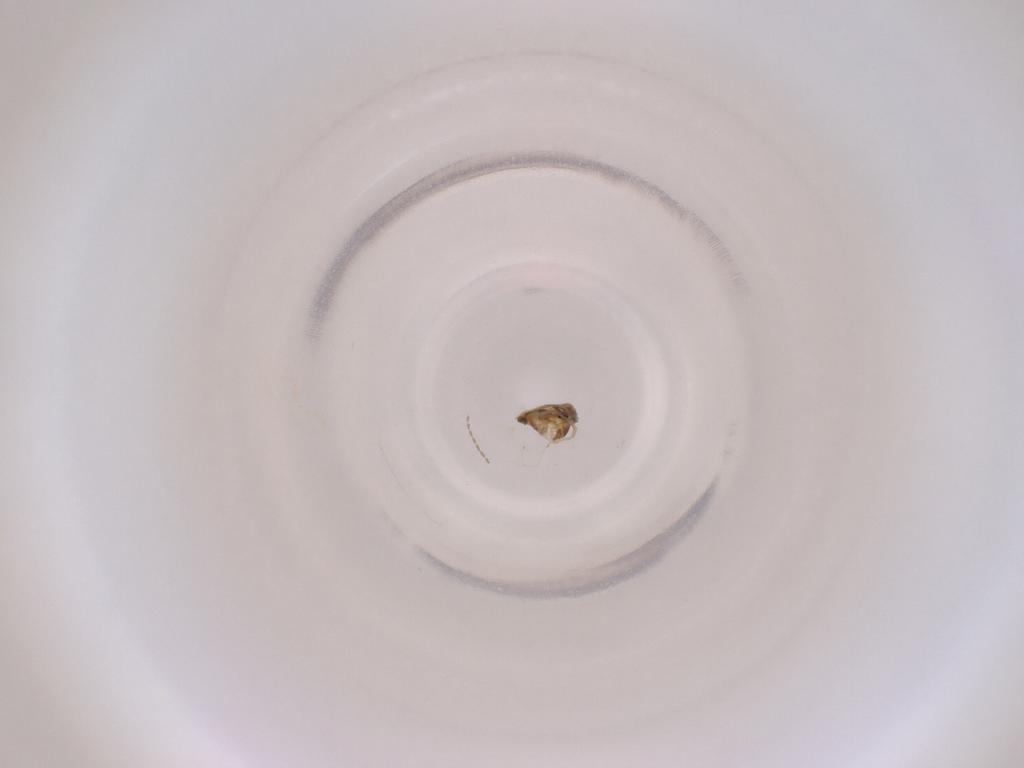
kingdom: Animalia
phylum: Arthropoda
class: Insecta
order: Diptera
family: Cecidomyiidae
